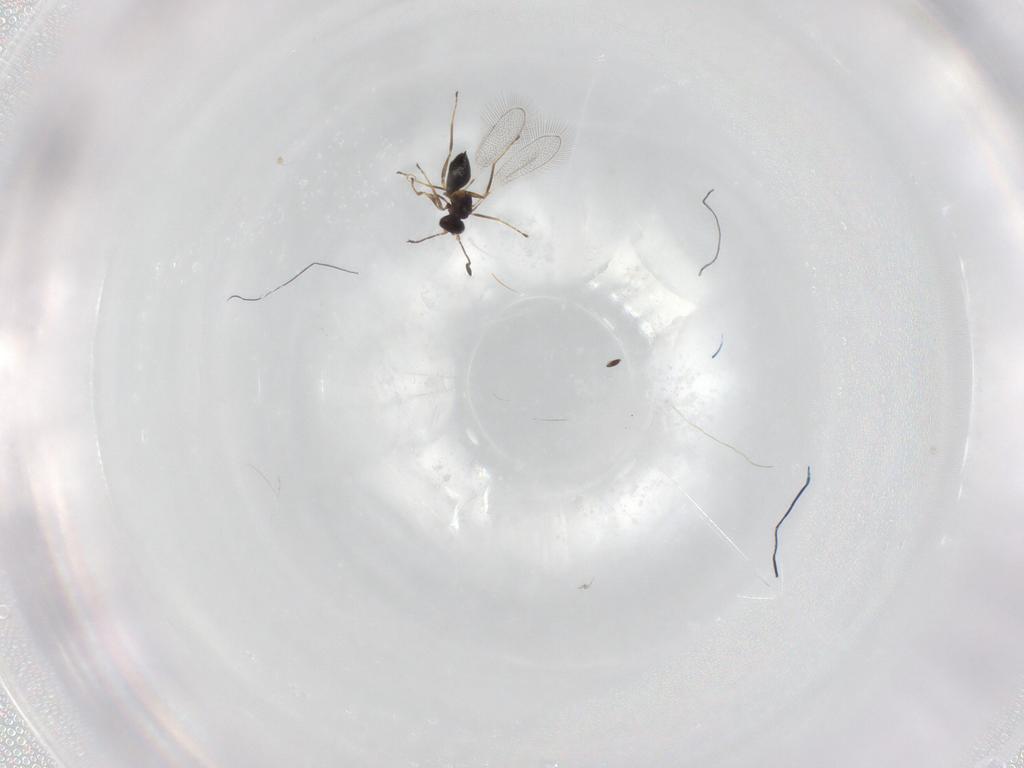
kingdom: Animalia
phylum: Arthropoda
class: Insecta
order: Hymenoptera
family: Mymaridae
